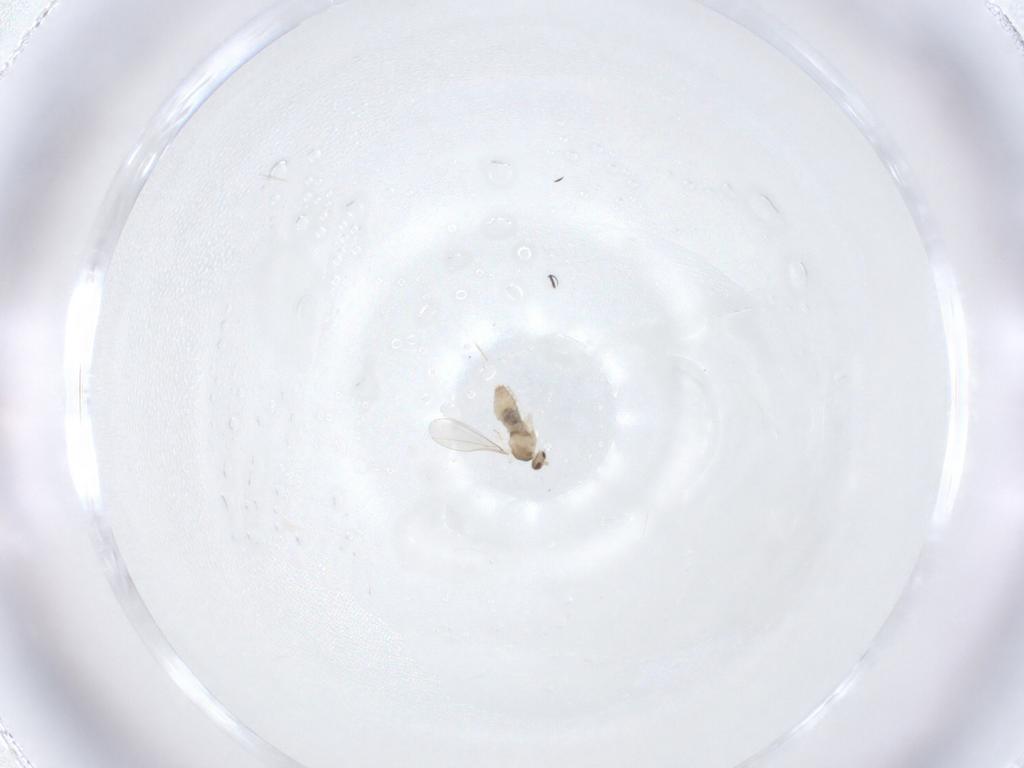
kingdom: Animalia
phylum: Arthropoda
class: Insecta
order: Diptera
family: Cecidomyiidae
